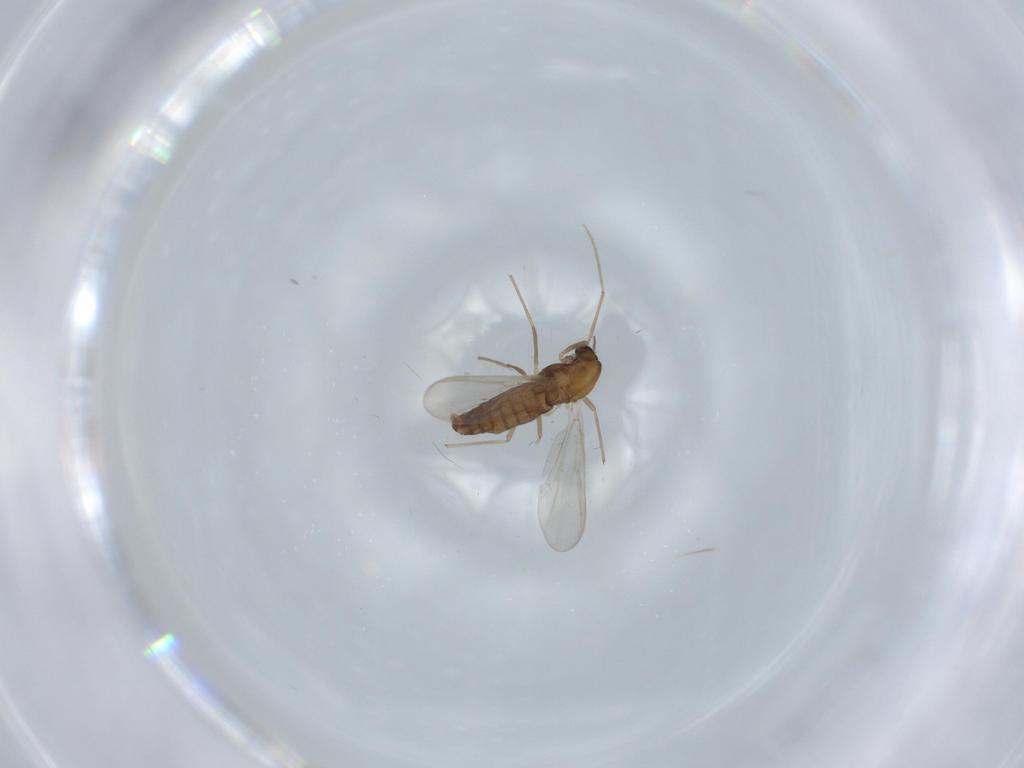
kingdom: Animalia
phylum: Arthropoda
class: Insecta
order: Diptera
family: Chironomidae
